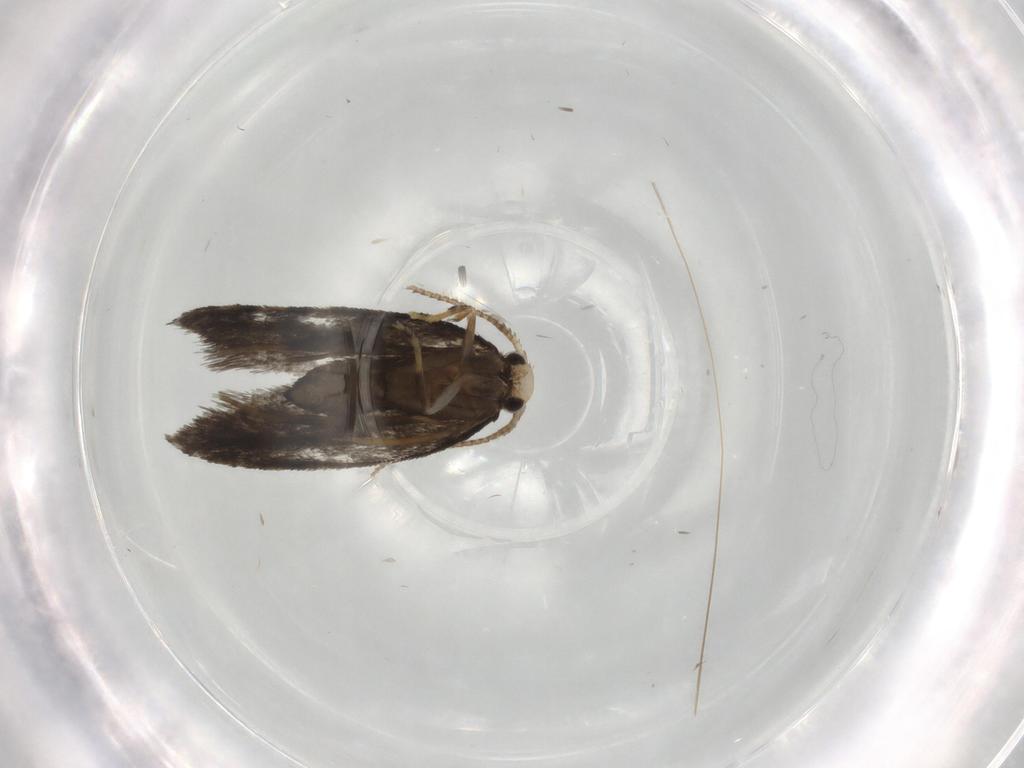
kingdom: Animalia
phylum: Arthropoda
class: Insecta
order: Lepidoptera
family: Psychidae
